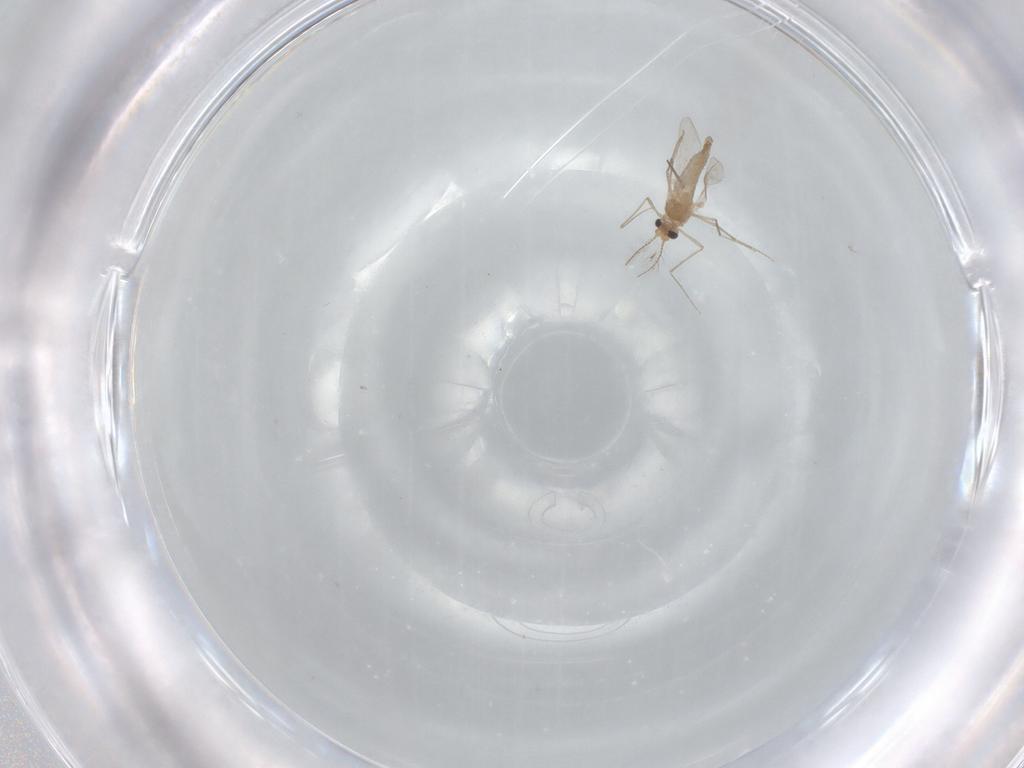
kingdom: Animalia
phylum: Arthropoda
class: Insecta
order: Diptera
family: Chironomidae
